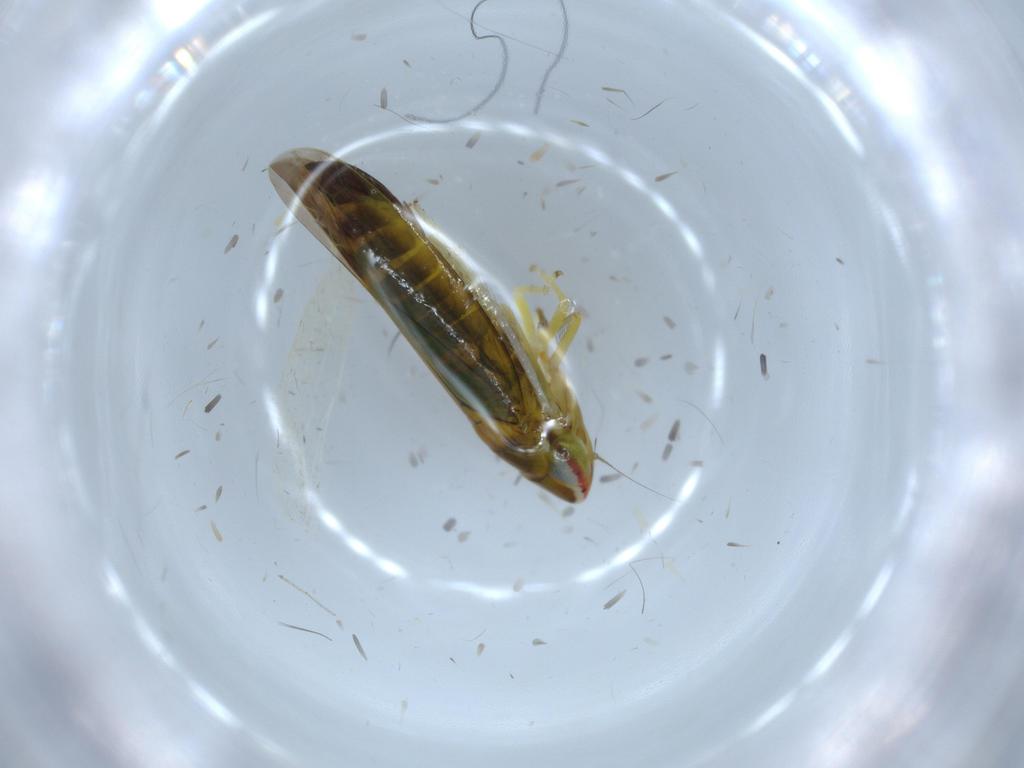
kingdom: Animalia
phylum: Arthropoda
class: Insecta
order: Hemiptera
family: Cicadellidae
